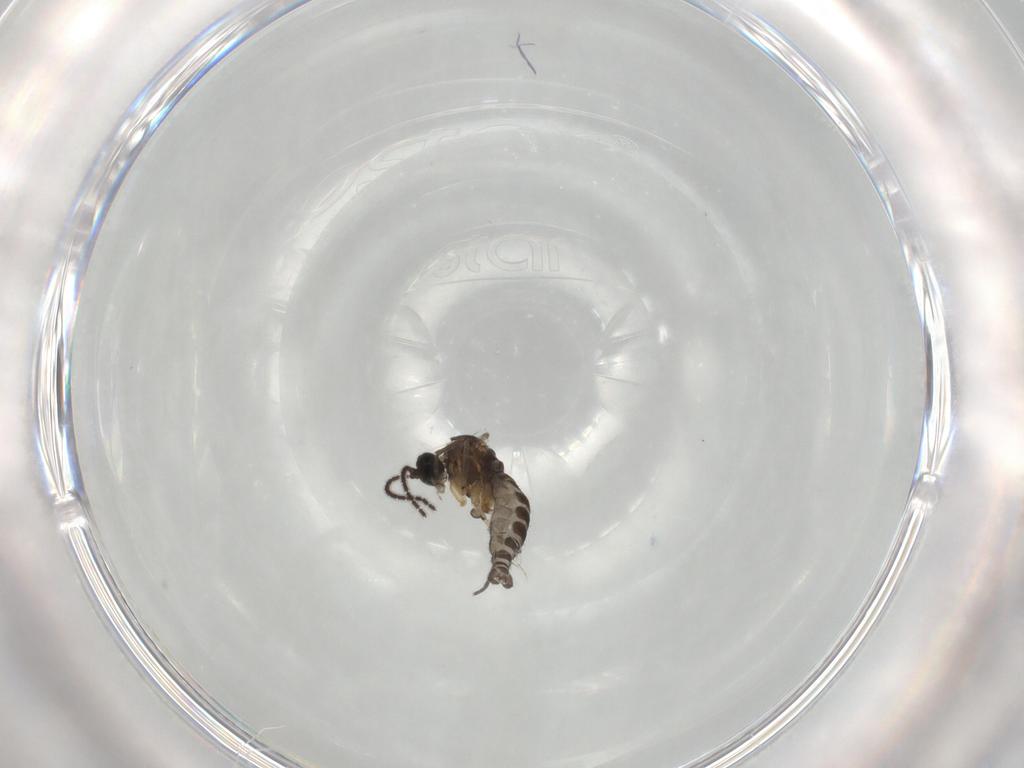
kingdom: Animalia
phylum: Arthropoda
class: Insecta
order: Diptera
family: Sciaridae
